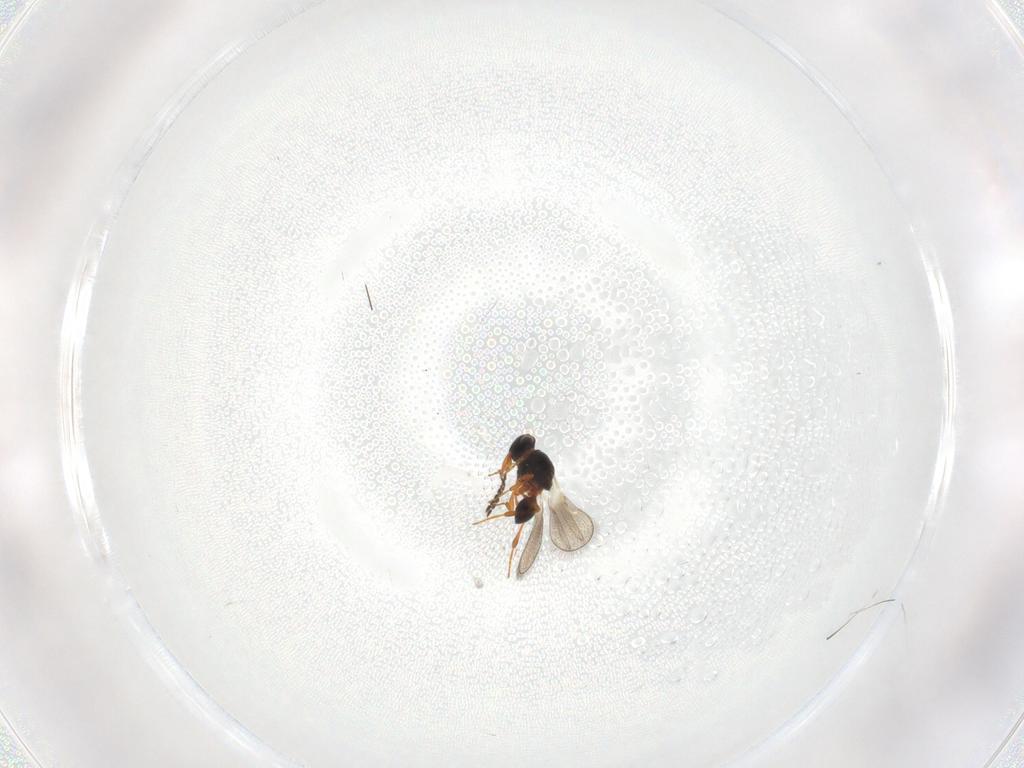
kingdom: Animalia
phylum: Arthropoda
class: Insecta
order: Hymenoptera
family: Platygastridae
